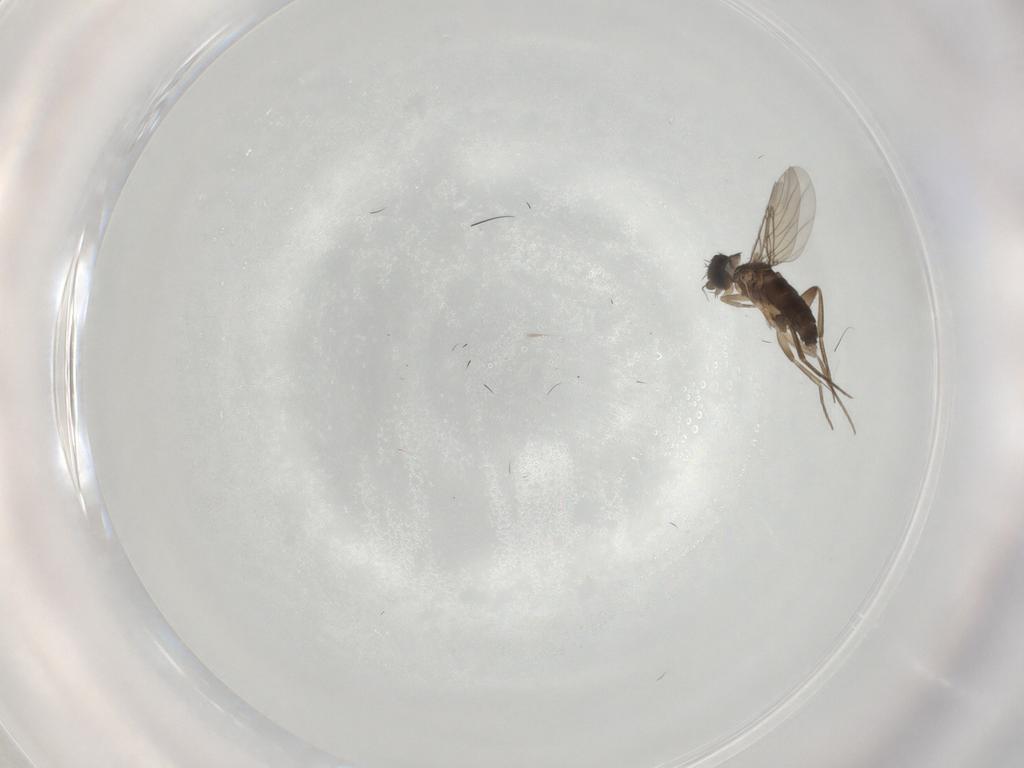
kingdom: Animalia
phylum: Arthropoda
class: Insecta
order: Diptera
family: Phoridae
